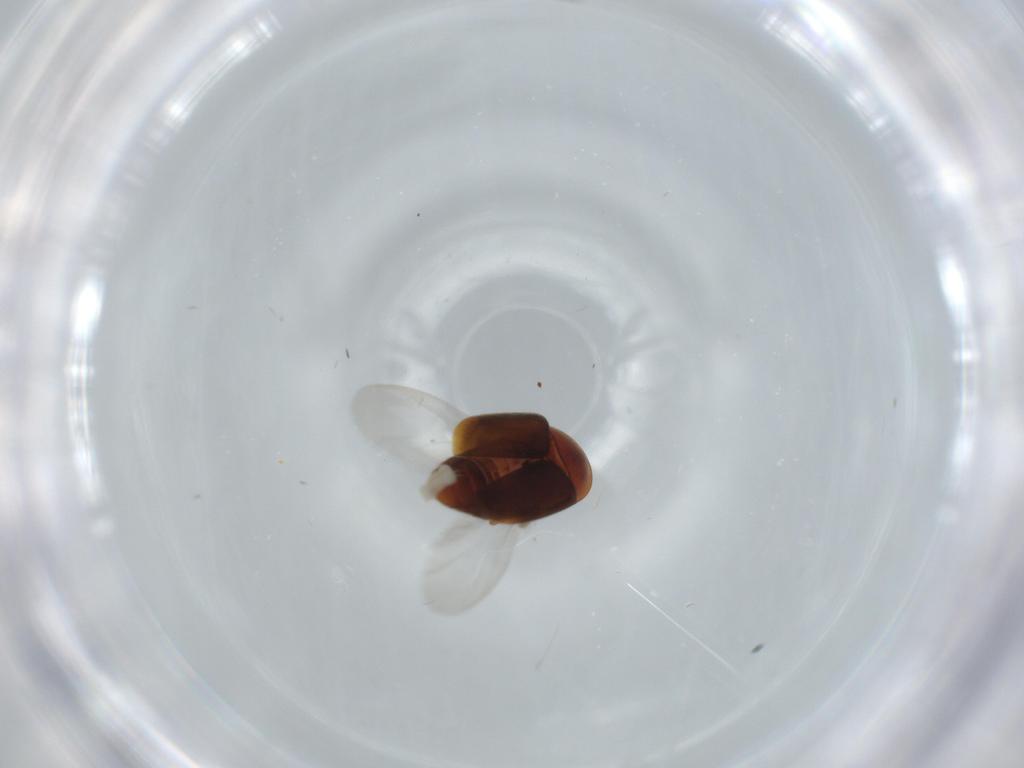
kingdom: Animalia
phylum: Arthropoda
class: Insecta
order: Coleoptera
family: Corylophidae
